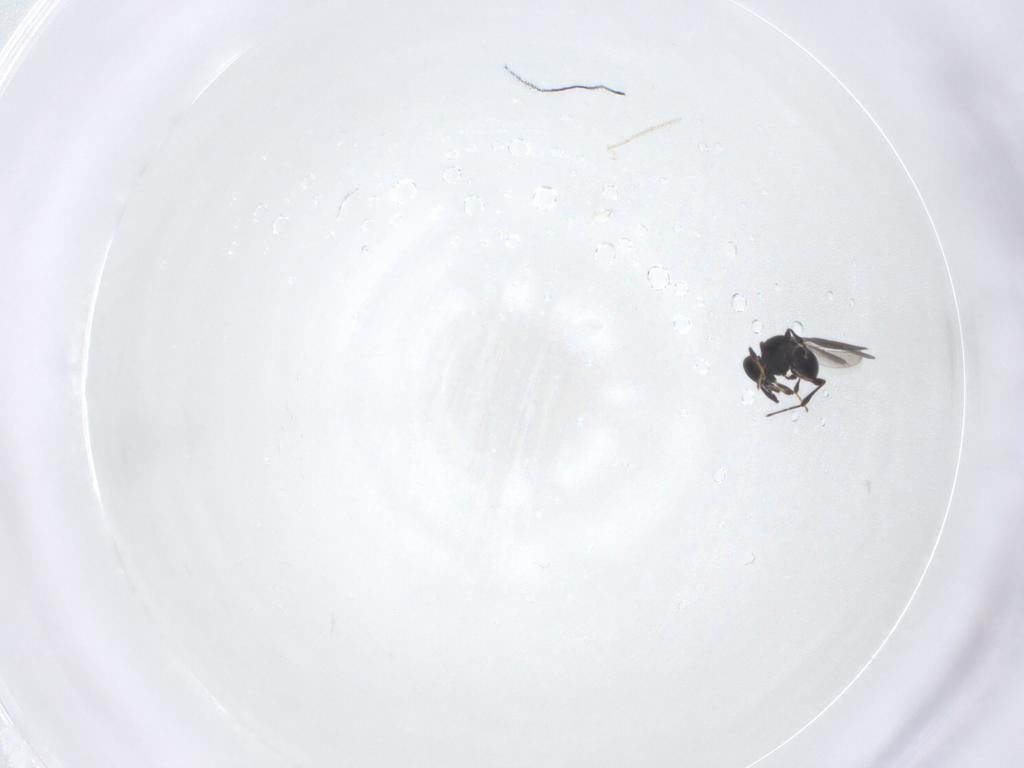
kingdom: Animalia
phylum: Arthropoda
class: Insecta
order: Hymenoptera
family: Platygastridae
